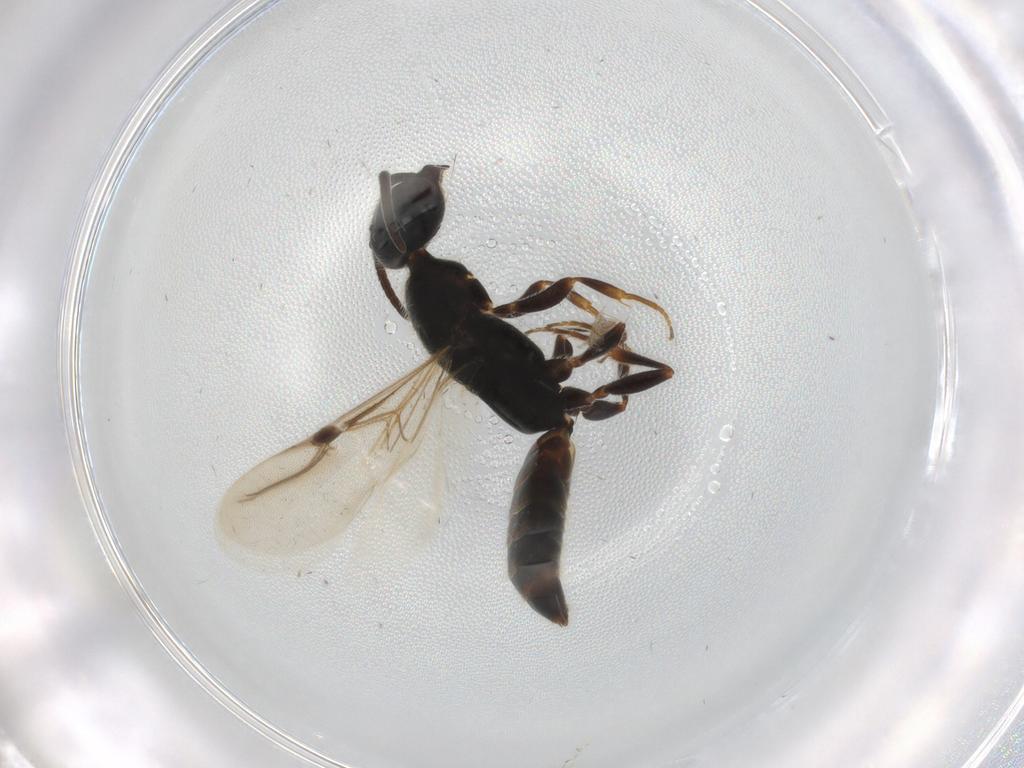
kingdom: Animalia
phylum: Arthropoda
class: Insecta
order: Hymenoptera
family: Bethylidae
